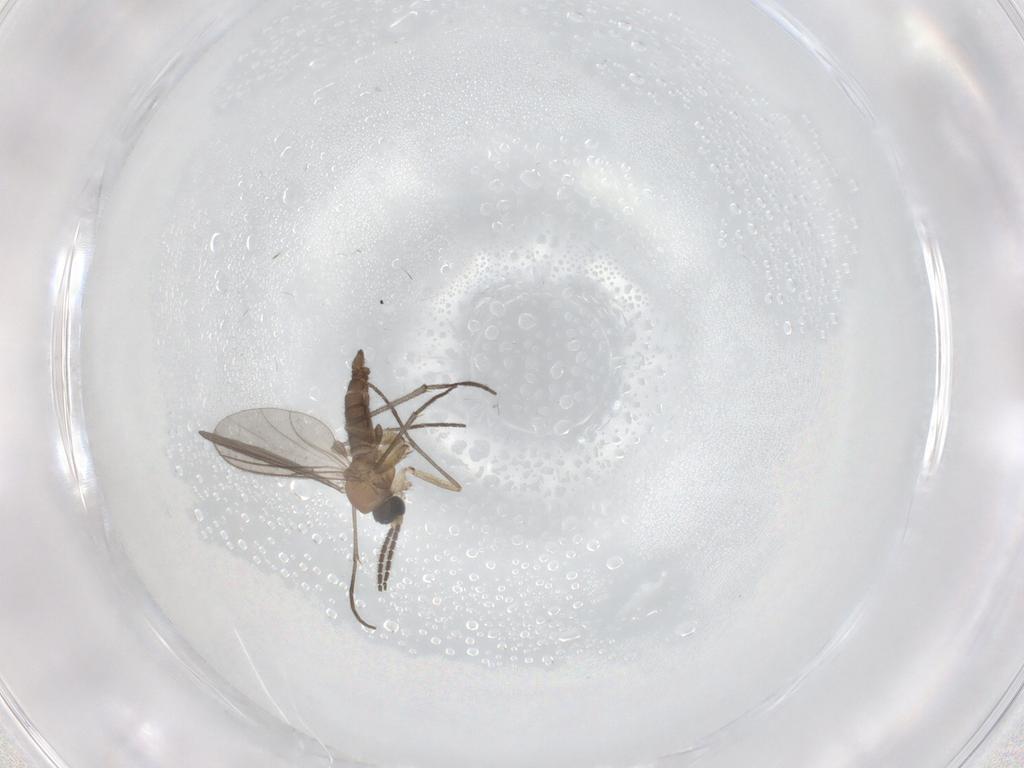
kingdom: Animalia
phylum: Arthropoda
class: Insecta
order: Diptera
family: Sciaridae
